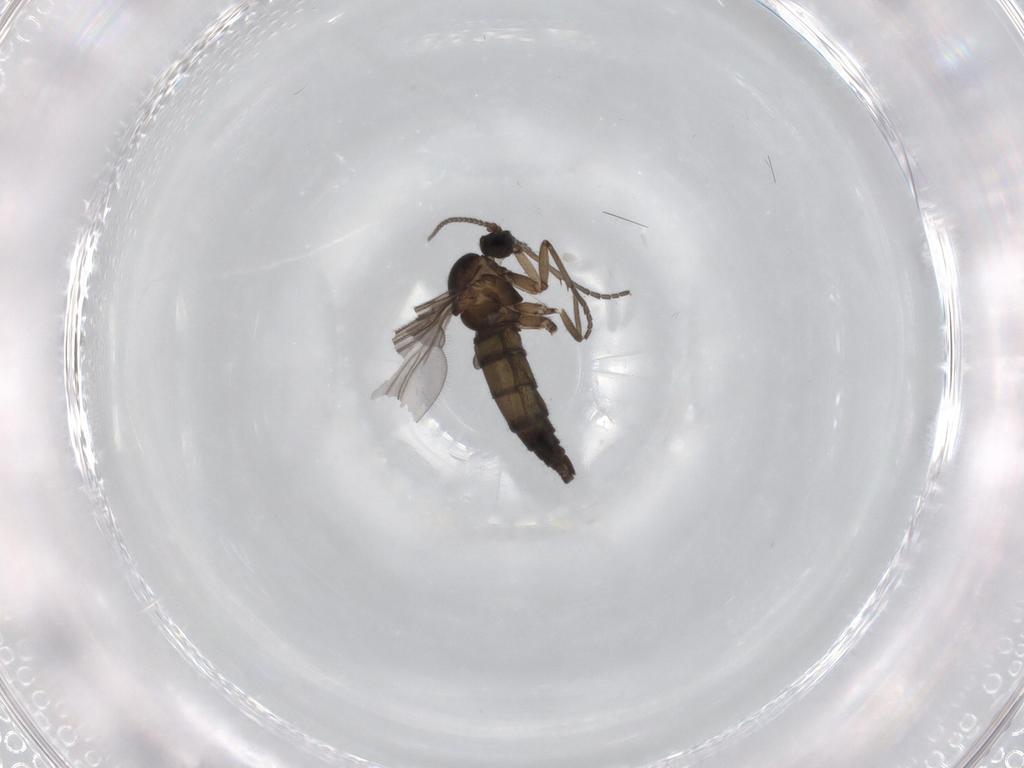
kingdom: Animalia
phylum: Arthropoda
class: Insecta
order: Diptera
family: Sciaridae
